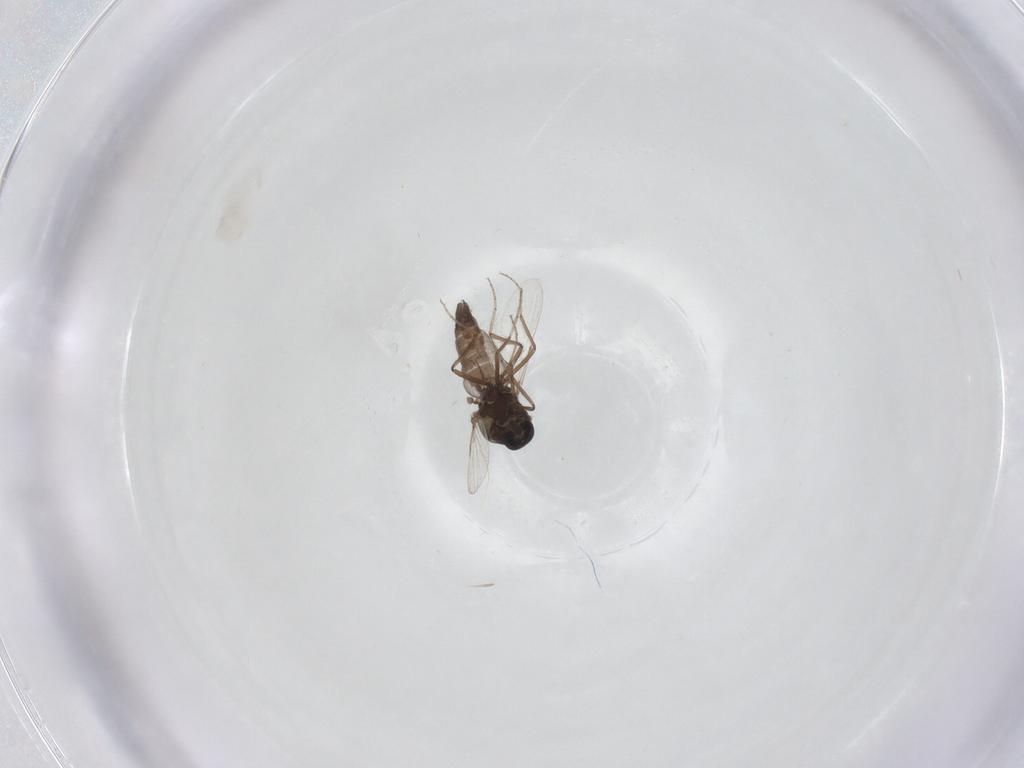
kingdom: Animalia
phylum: Arthropoda
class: Insecta
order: Diptera
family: Ceratopogonidae
